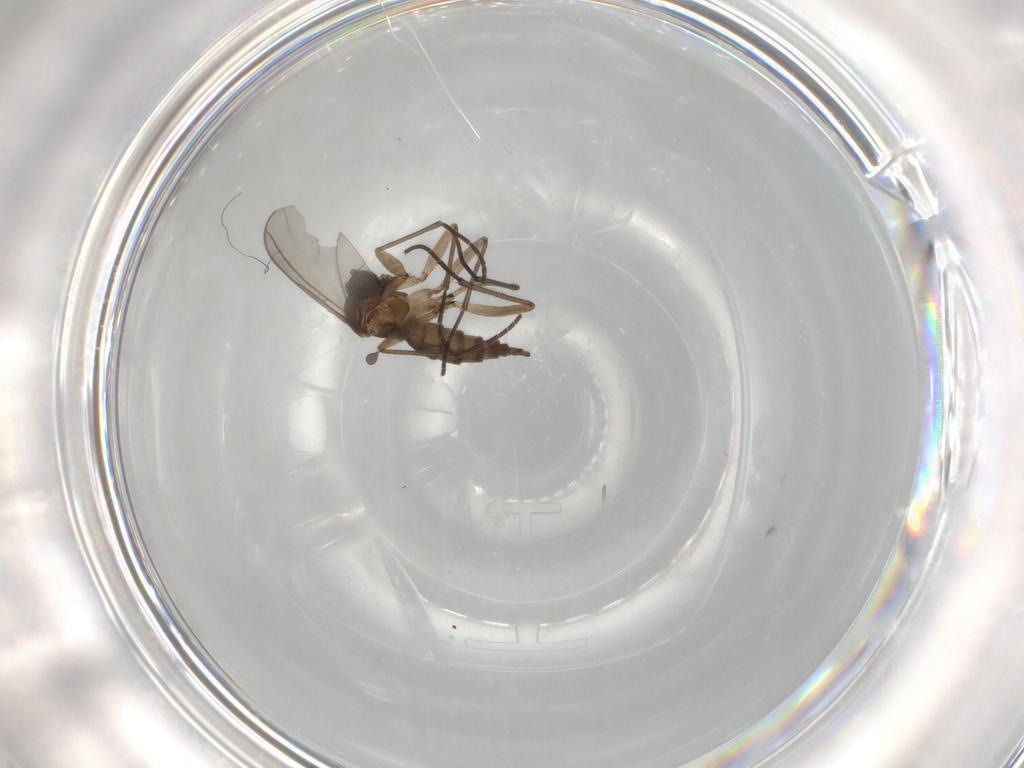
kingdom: Animalia
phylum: Arthropoda
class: Insecta
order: Diptera
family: Sciaridae
